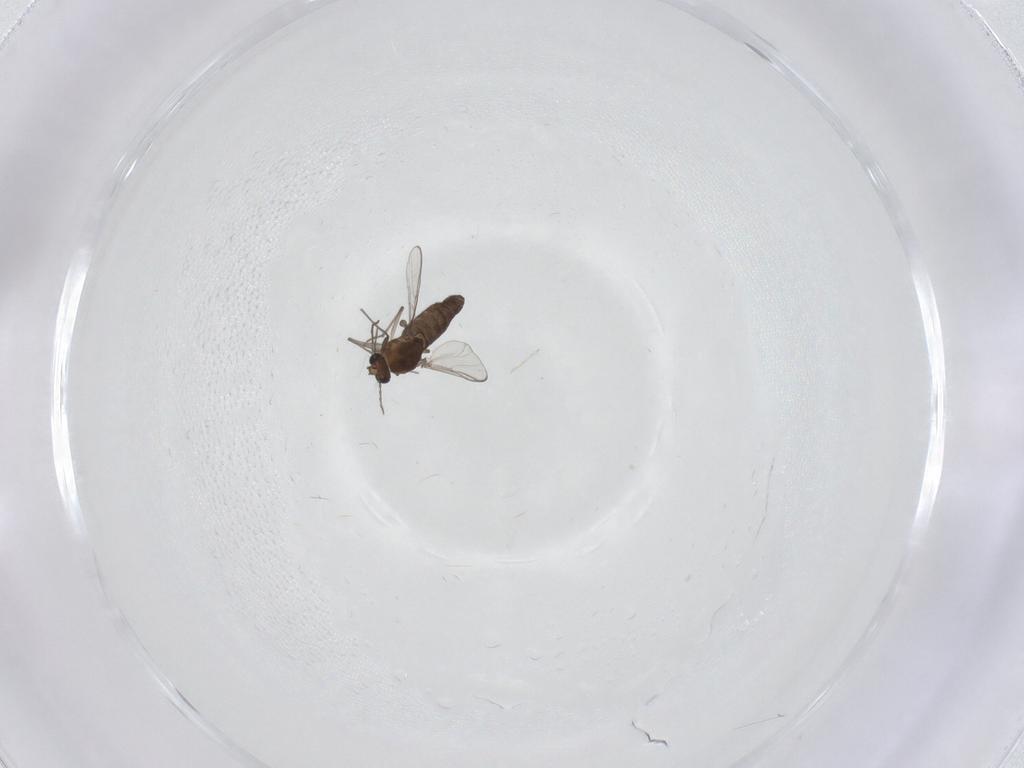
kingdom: Animalia
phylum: Arthropoda
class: Insecta
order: Diptera
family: Chironomidae
